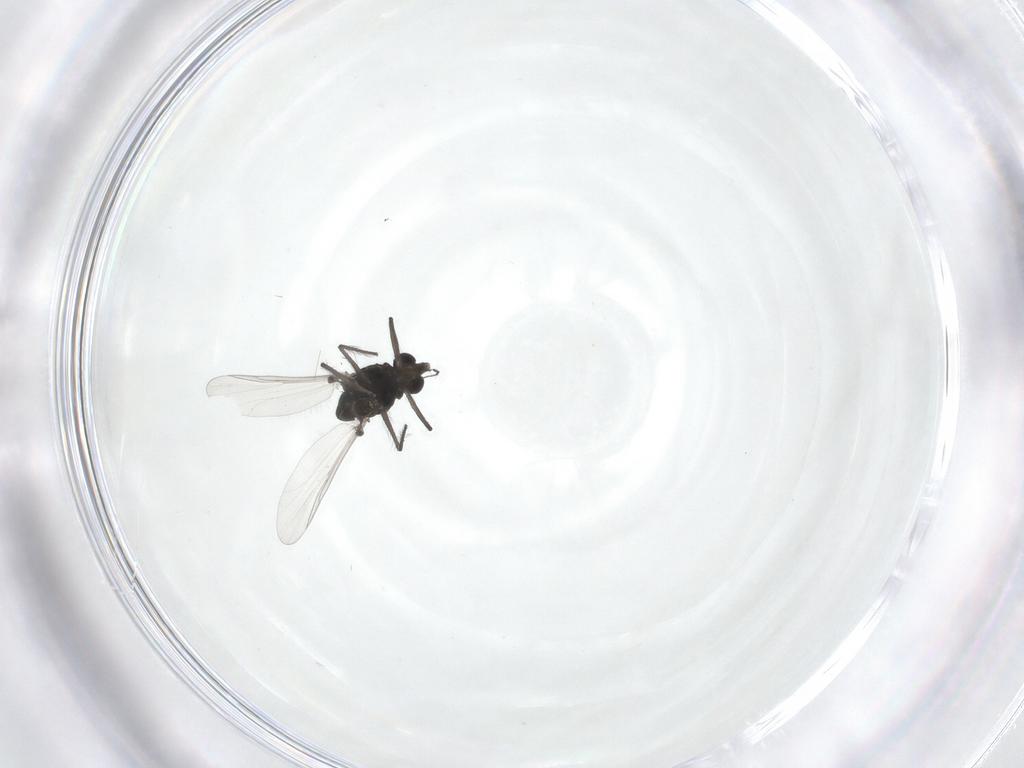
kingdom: Animalia
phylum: Arthropoda
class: Insecta
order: Diptera
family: Chironomidae
